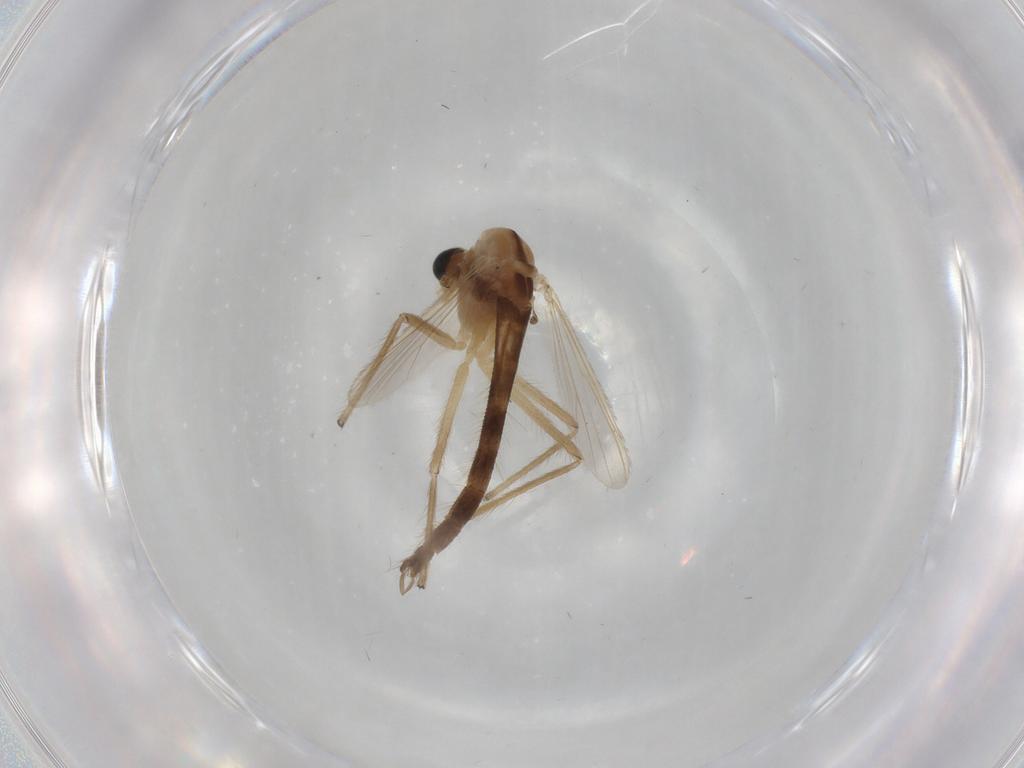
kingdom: Animalia
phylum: Arthropoda
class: Insecta
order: Diptera
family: Chironomidae
